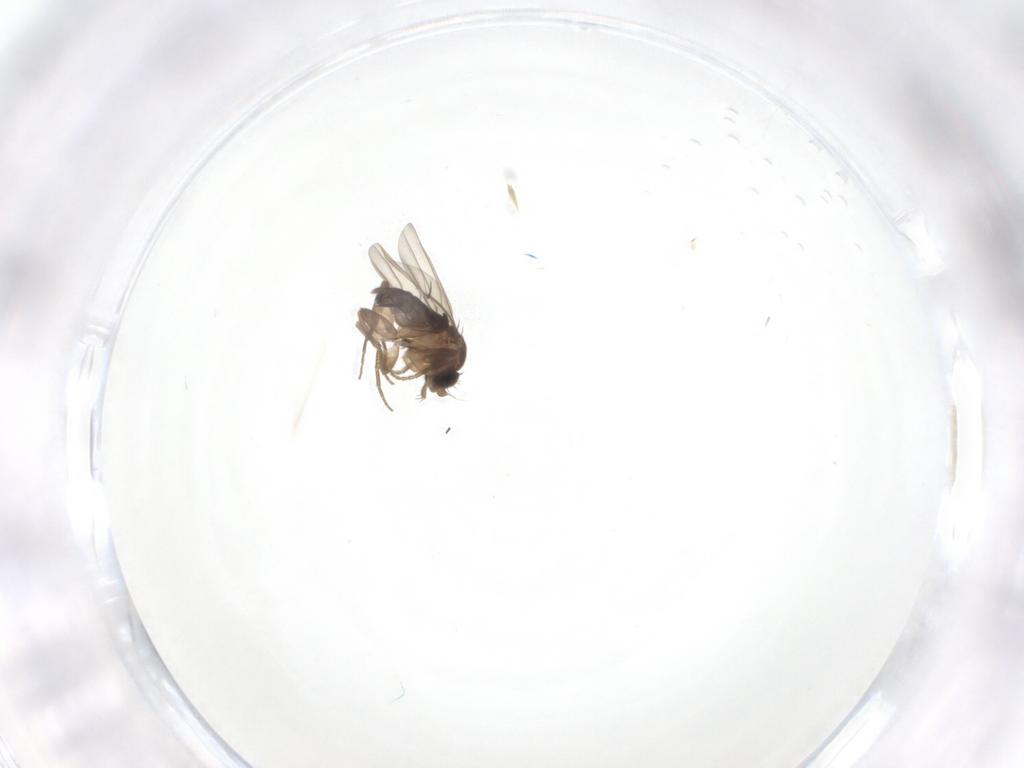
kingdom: Animalia
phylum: Arthropoda
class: Insecta
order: Diptera
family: Phoridae
